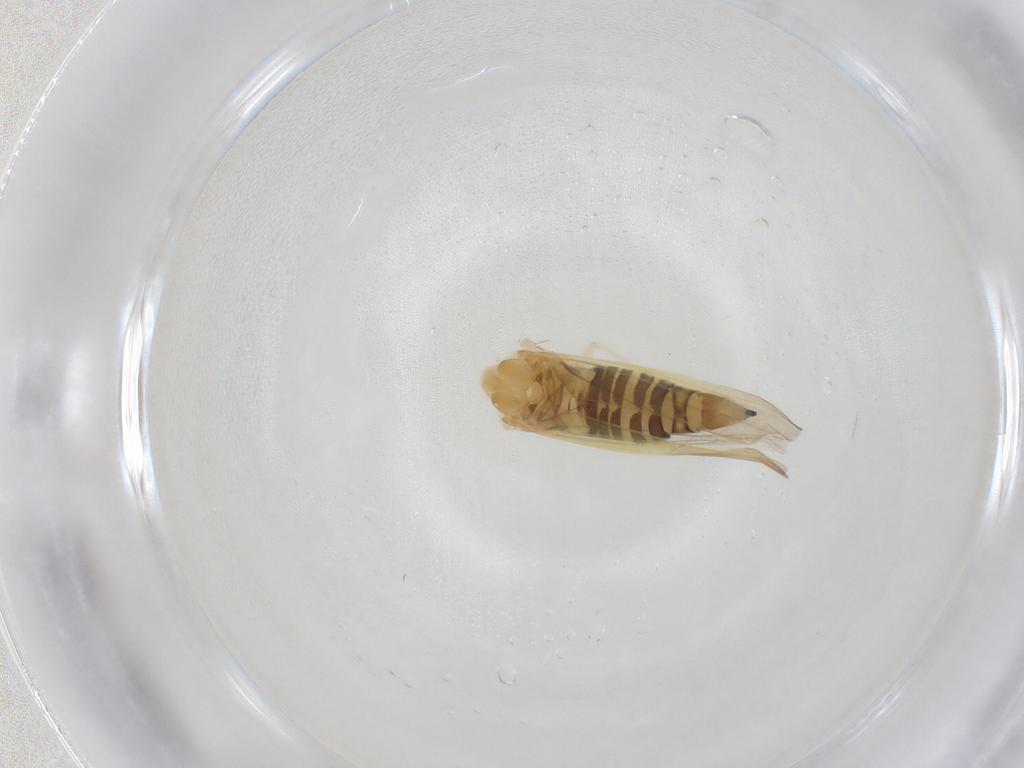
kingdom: Animalia
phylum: Arthropoda
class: Insecta
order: Hemiptera
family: Cicadellidae
